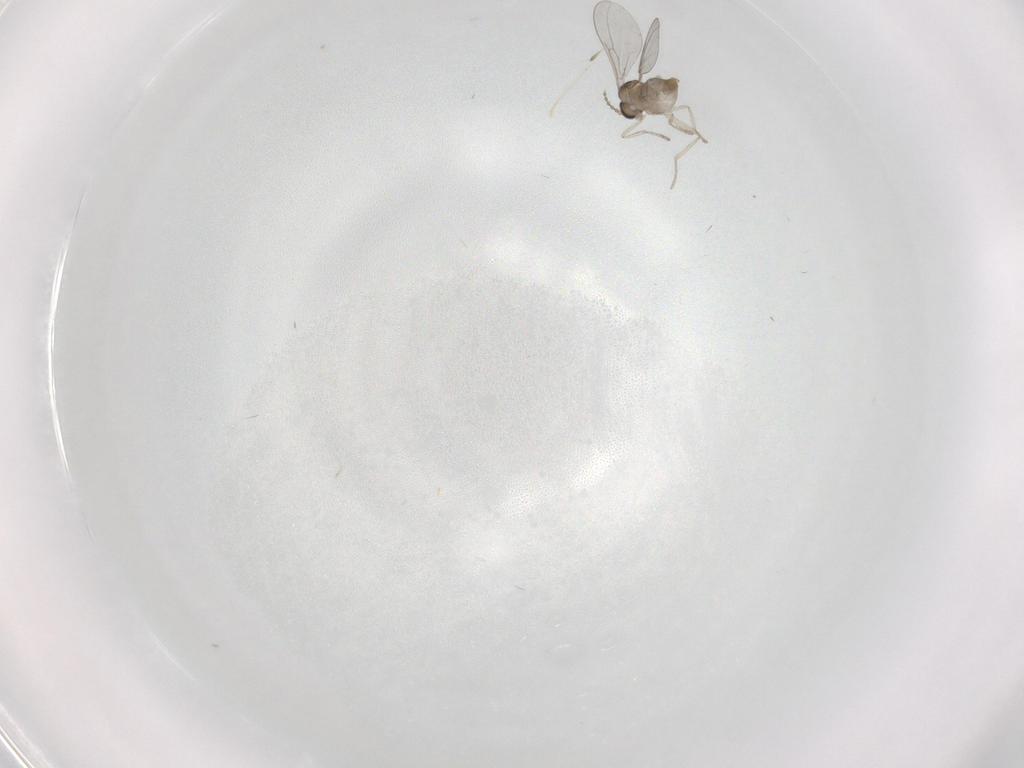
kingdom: Animalia
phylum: Arthropoda
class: Insecta
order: Diptera
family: Cecidomyiidae
